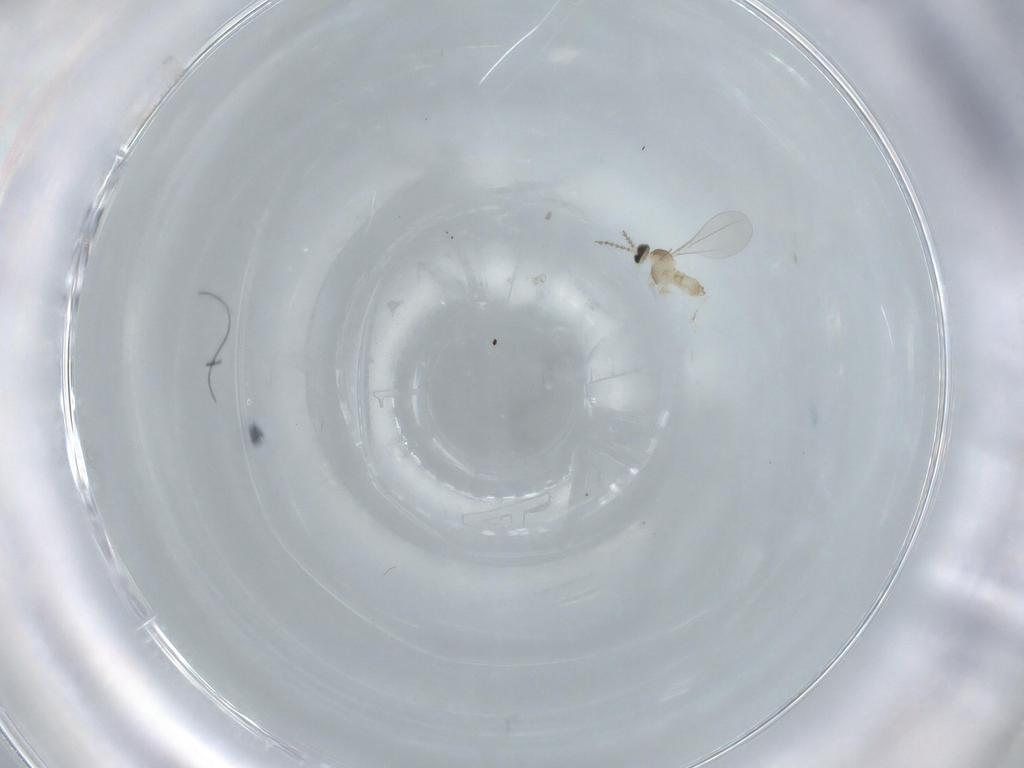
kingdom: Animalia
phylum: Arthropoda
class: Insecta
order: Diptera
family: Cecidomyiidae
